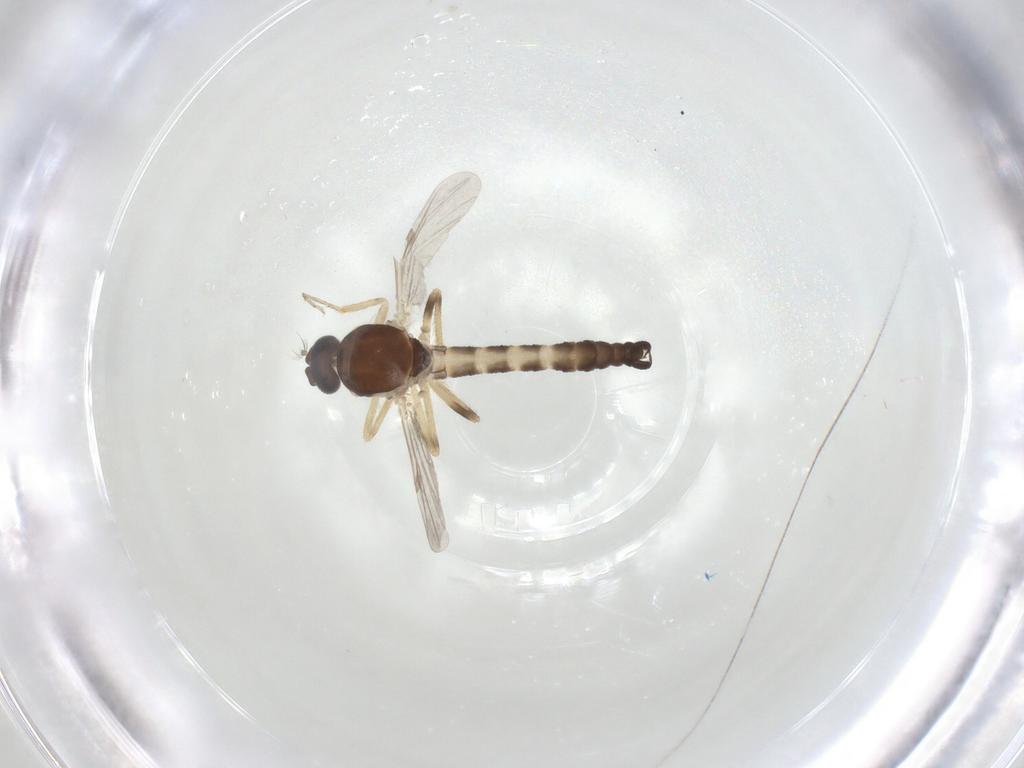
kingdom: Animalia
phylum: Arthropoda
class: Insecta
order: Diptera
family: Ceratopogonidae
